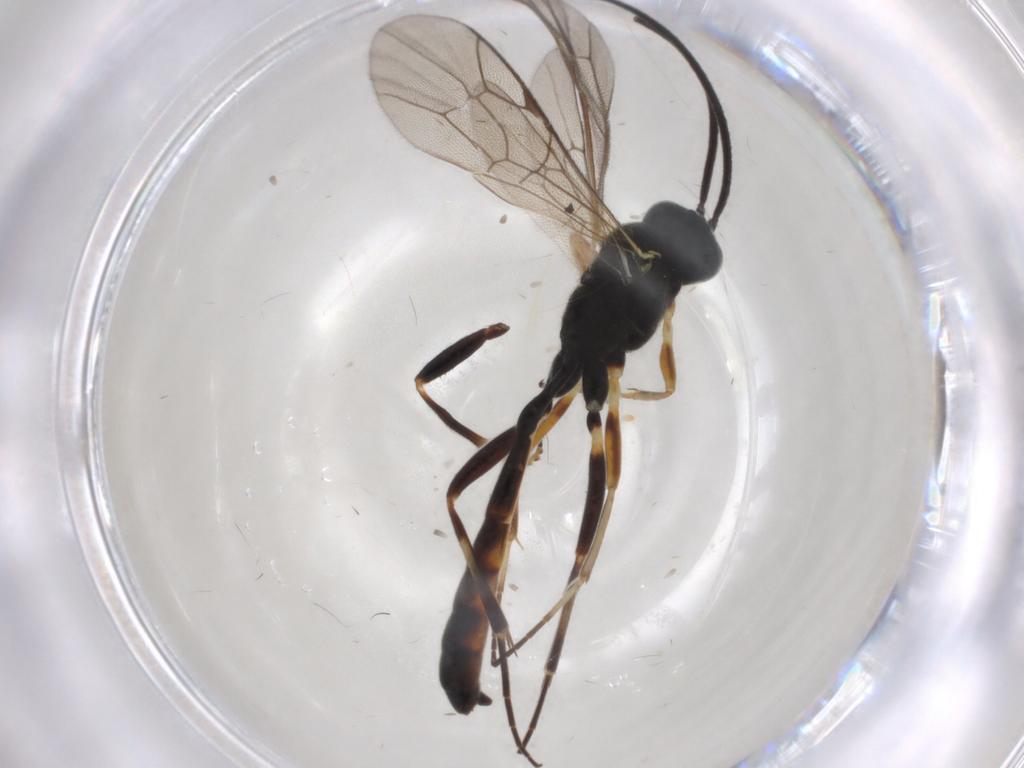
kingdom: Animalia
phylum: Arthropoda
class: Insecta
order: Hymenoptera
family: Ichneumonidae
